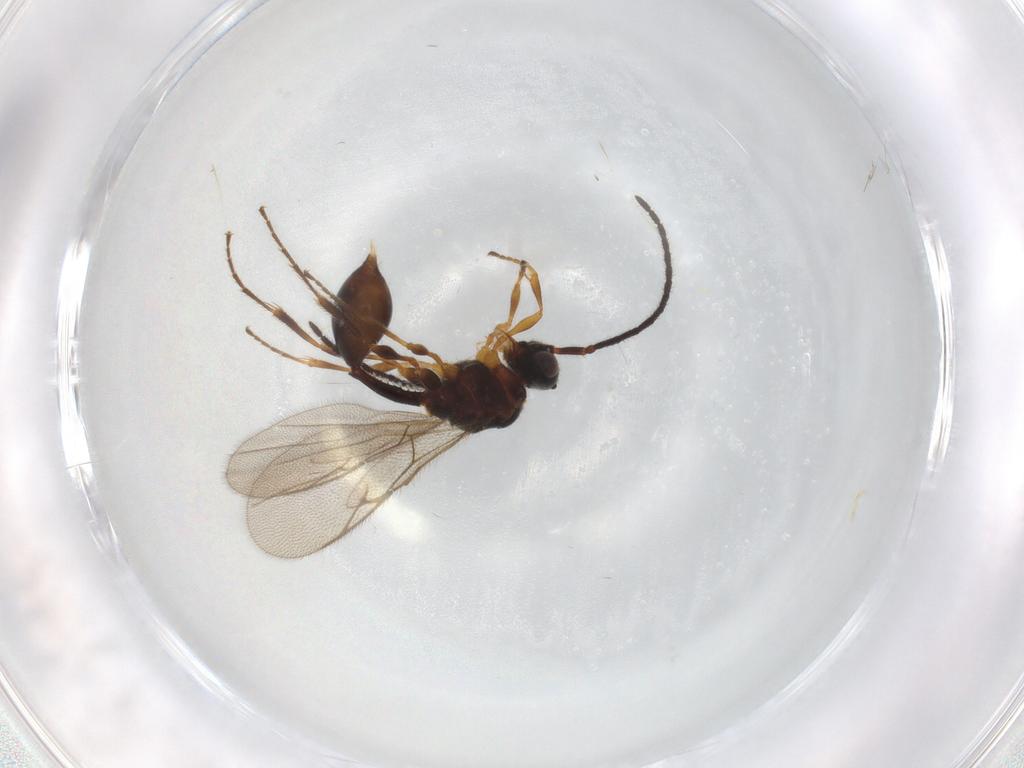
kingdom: Animalia
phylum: Arthropoda
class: Insecta
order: Hymenoptera
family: Diapriidae
